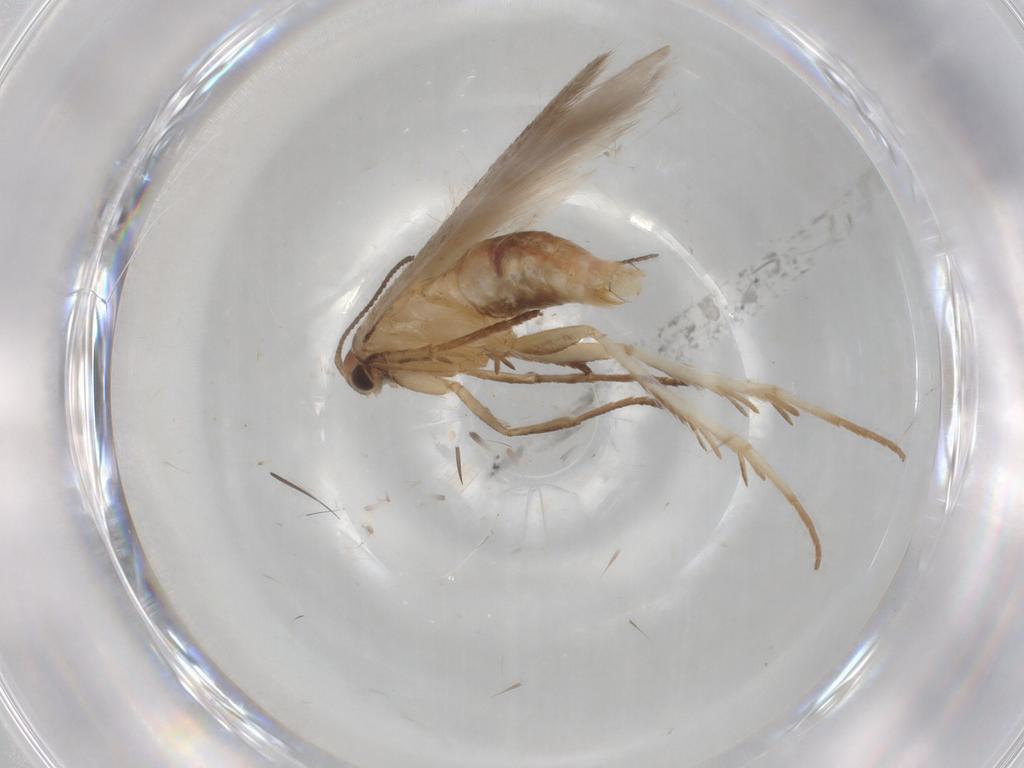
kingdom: Animalia
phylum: Arthropoda
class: Insecta
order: Lepidoptera
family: Gelechiidae
